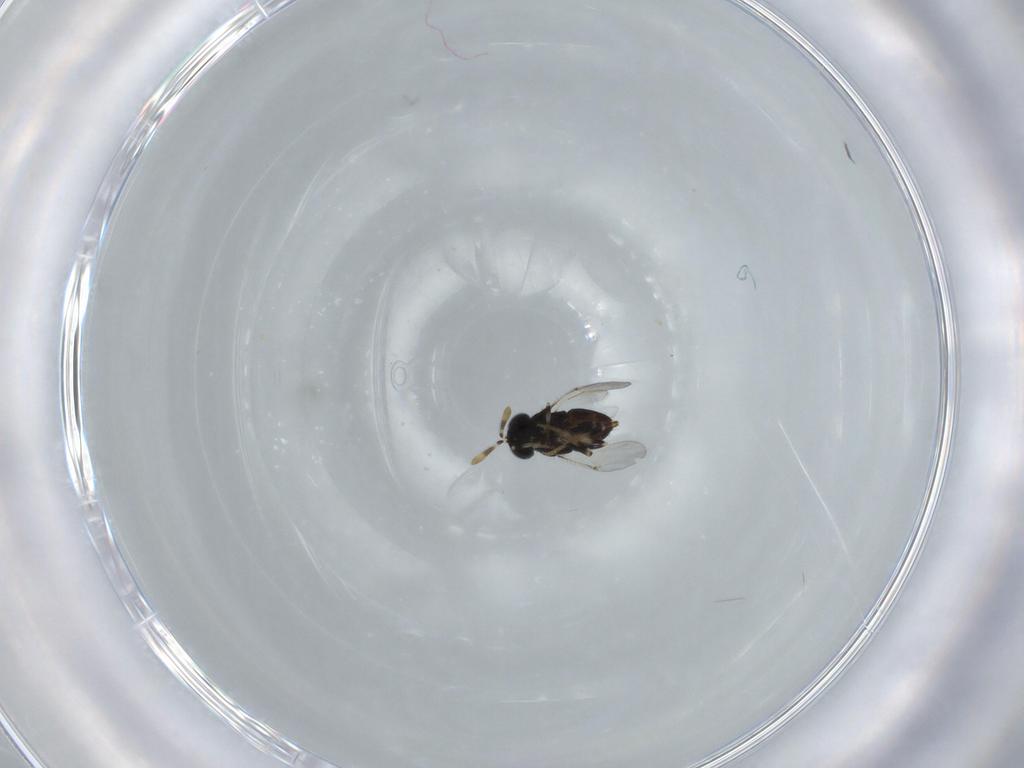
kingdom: Animalia
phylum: Arthropoda
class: Insecta
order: Hymenoptera
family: Encyrtidae
